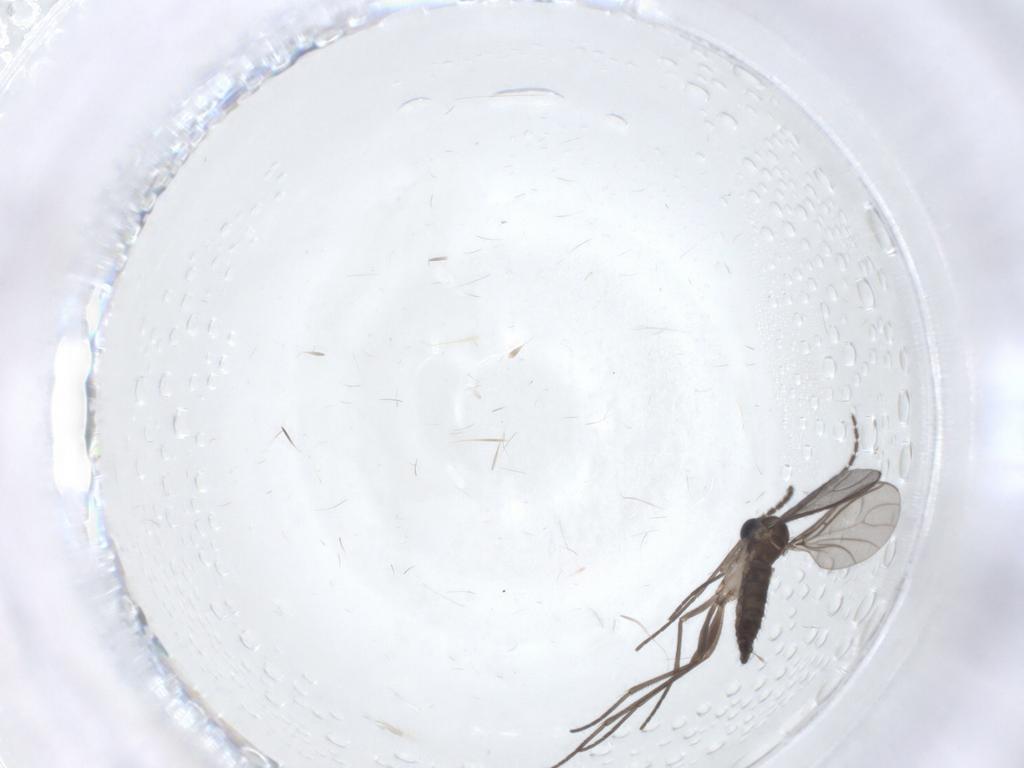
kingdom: Animalia
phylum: Arthropoda
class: Insecta
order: Diptera
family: Sciaridae
